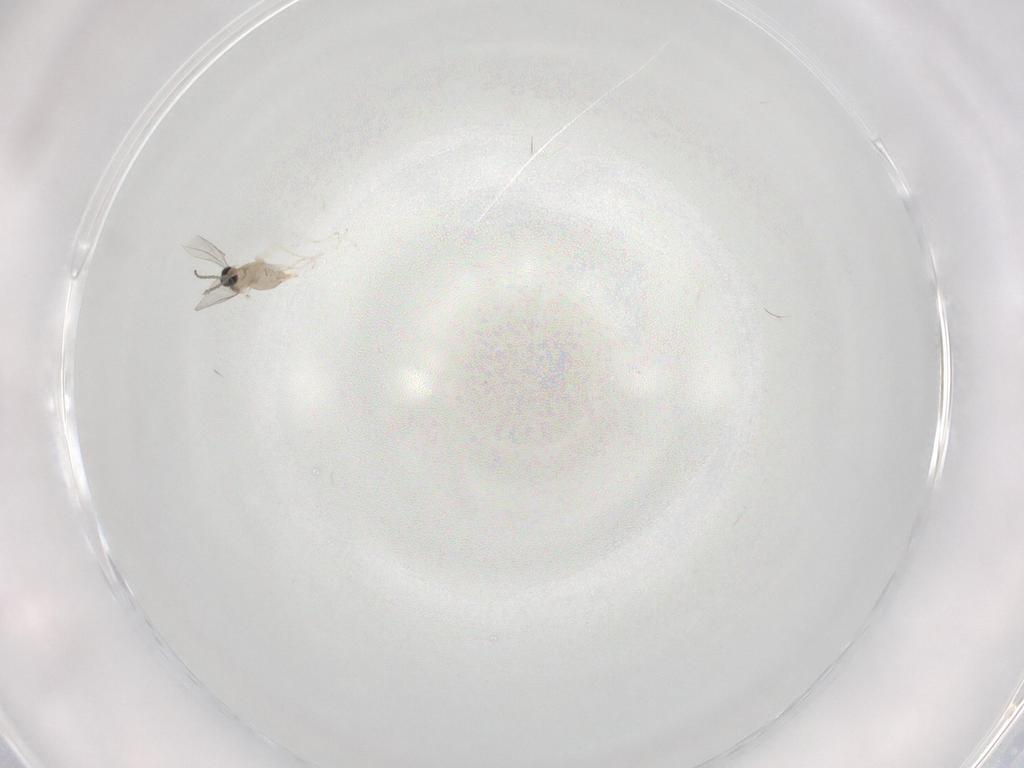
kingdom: Animalia
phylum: Arthropoda
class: Insecta
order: Diptera
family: Cecidomyiidae
